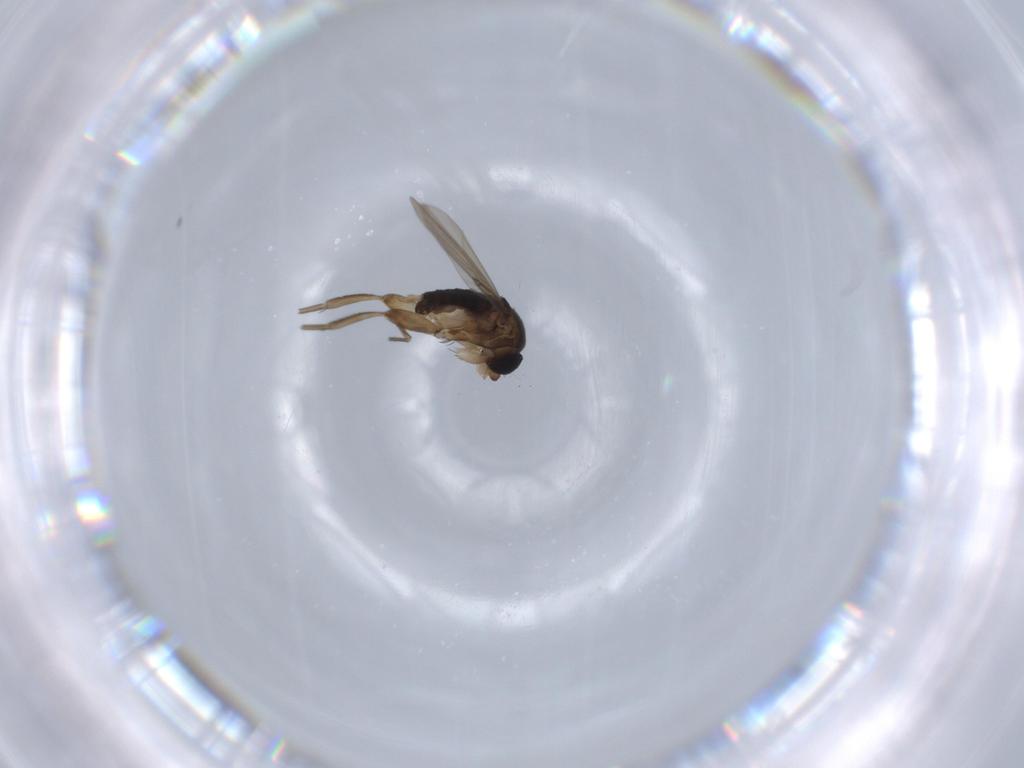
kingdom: Animalia
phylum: Arthropoda
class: Insecta
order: Diptera
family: Phoridae
